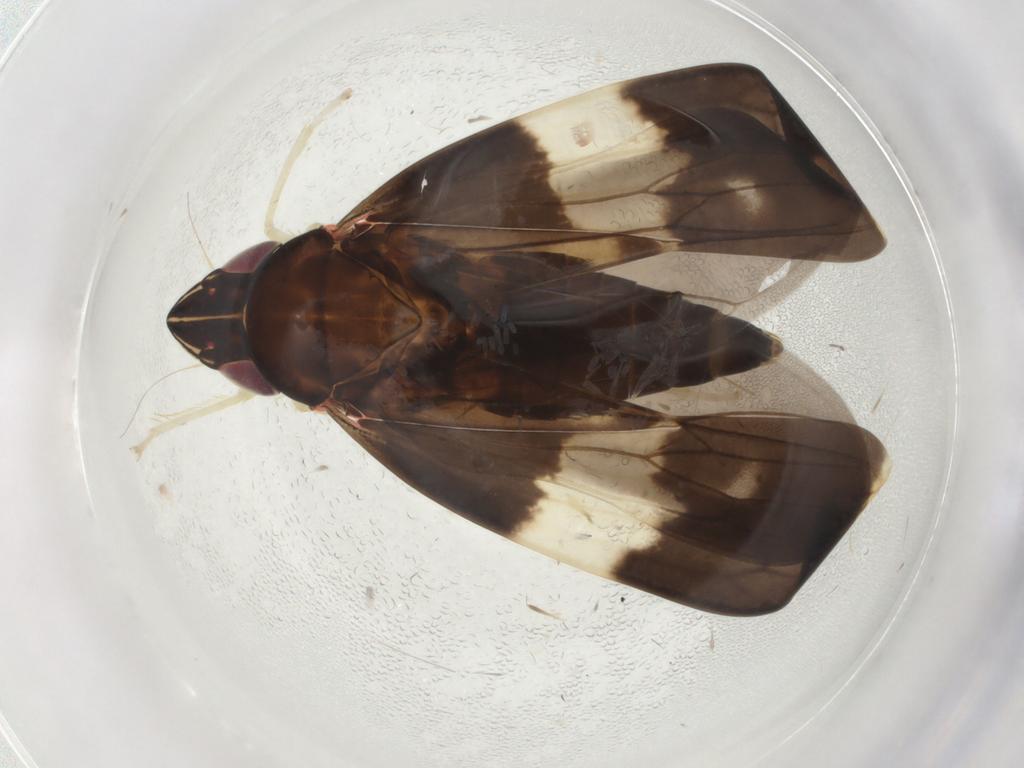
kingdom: Animalia
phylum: Arthropoda
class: Insecta
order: Hemiptera
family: Cicadellidae
